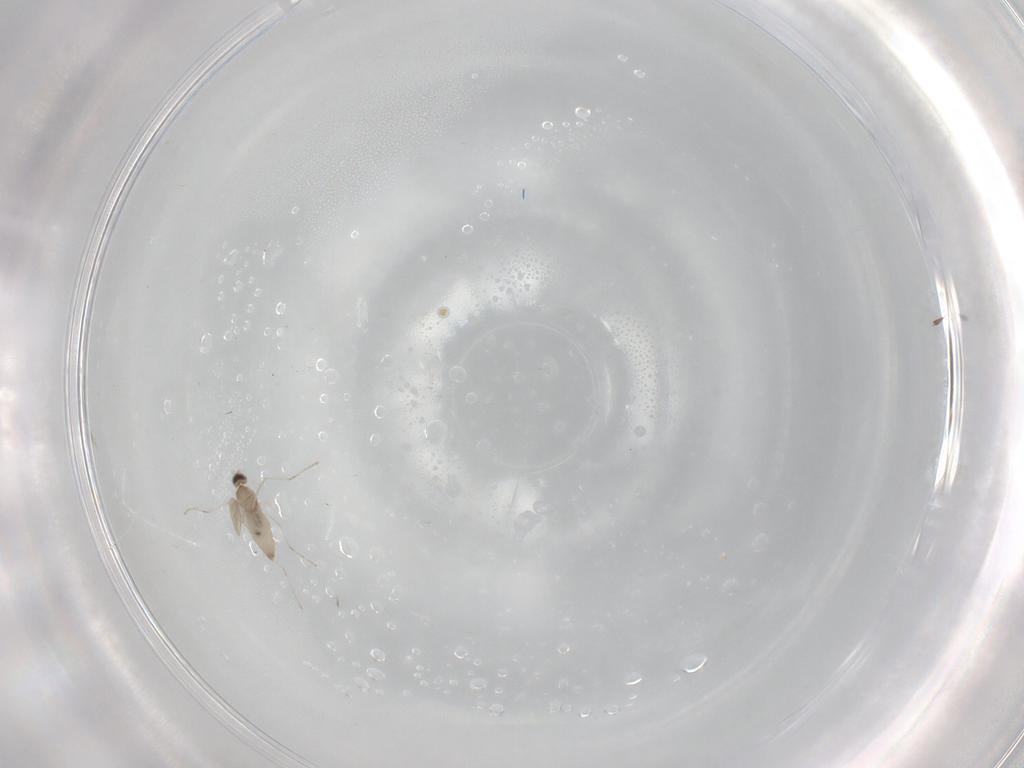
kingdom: Animalia
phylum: Arthropoda
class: Insecta
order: Diptera
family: Cecidomyiidae
